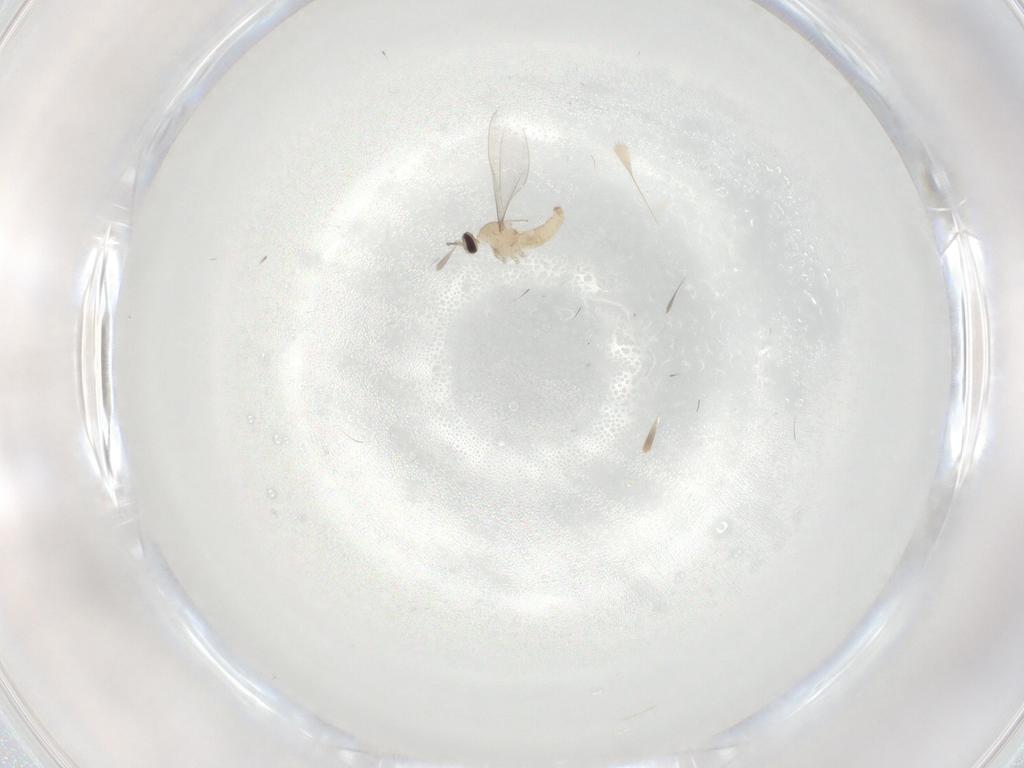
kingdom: Animalia
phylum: Arthropoda
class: Insecta
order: Diptera
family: Cecidomyiidae
